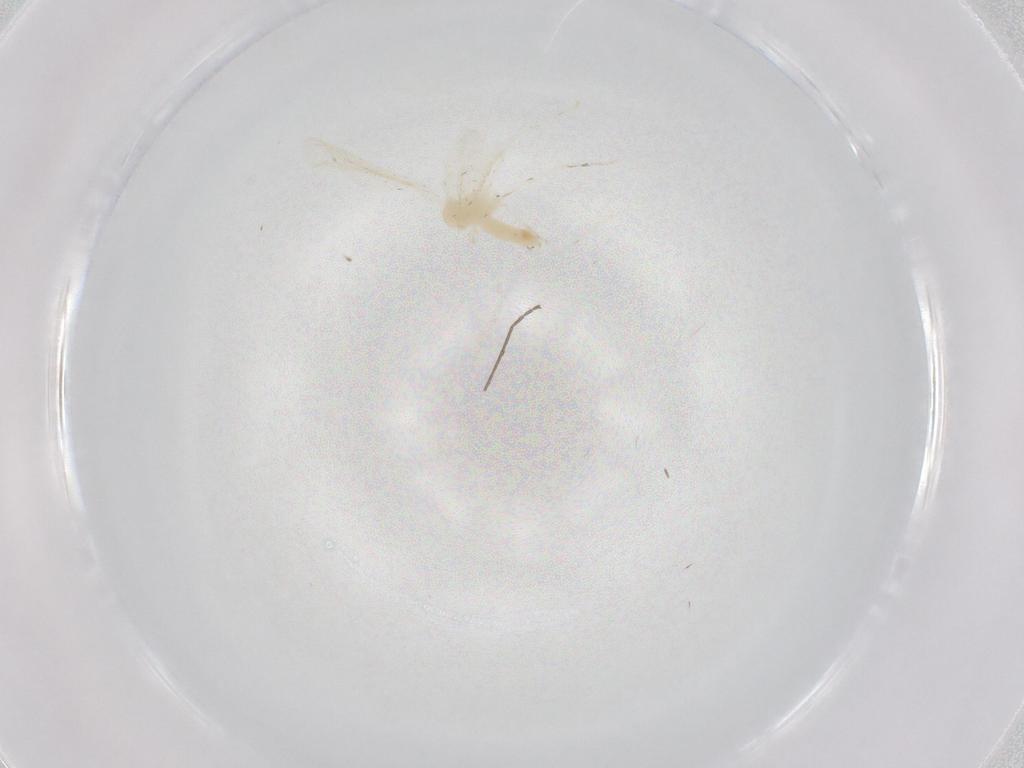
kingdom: Animalia
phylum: Arthropoda
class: Insecta
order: Diptera
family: Cecidomyiidae
